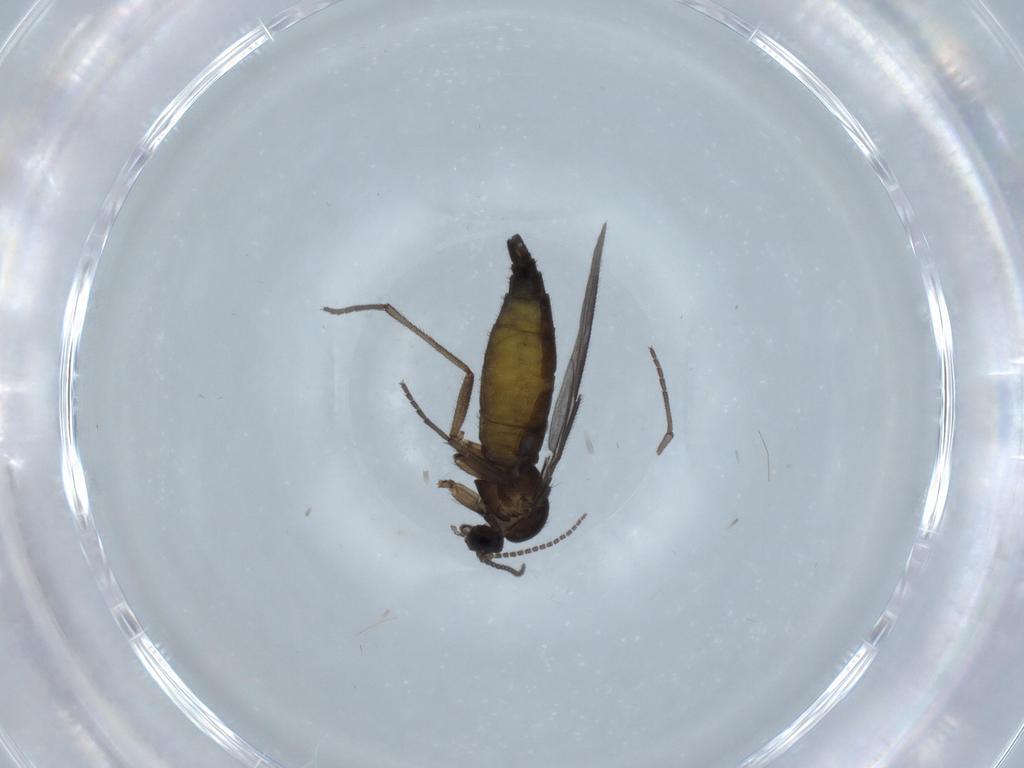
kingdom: Animalia
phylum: Arthropoda
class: Insecta
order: Diptera
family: Sciaridae
